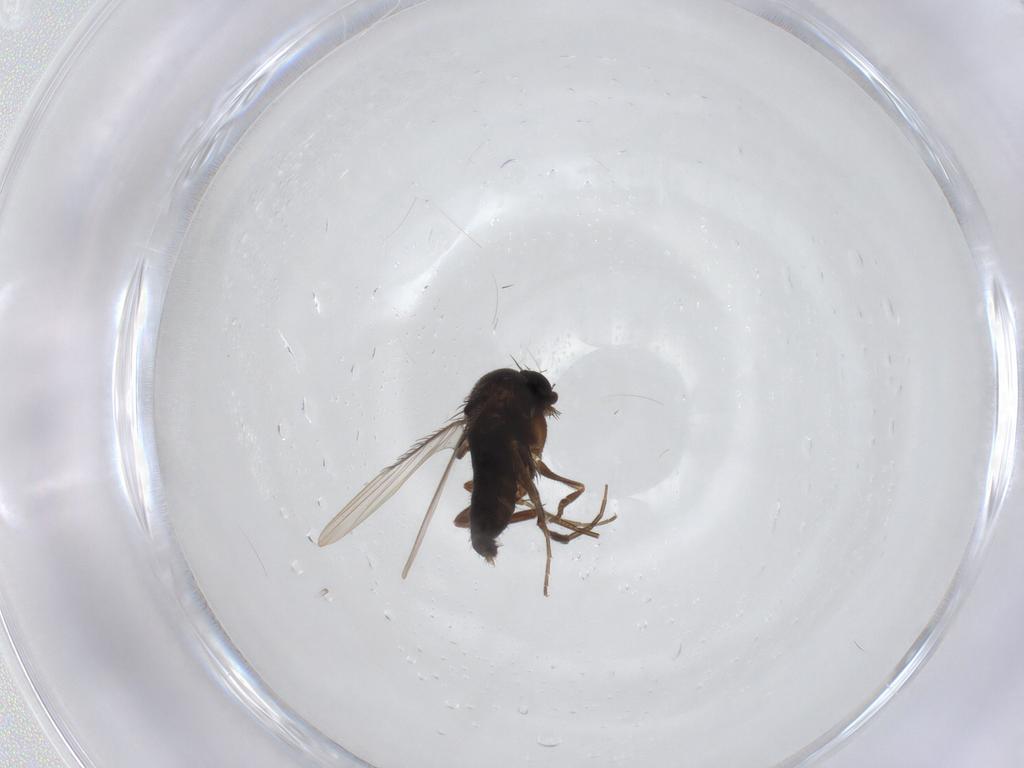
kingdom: Animalia
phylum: Arthropoda
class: Insecta
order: Diptera
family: Phoridae
